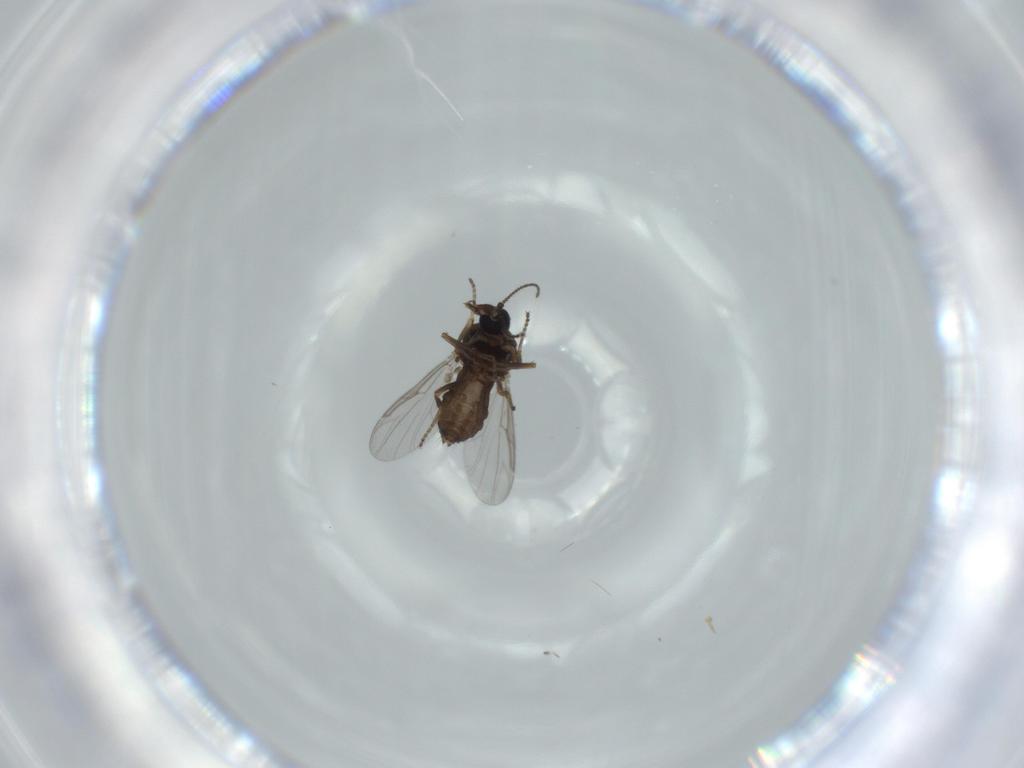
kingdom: Animalia
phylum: Arthropoda
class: Insecta
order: Diptera
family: Ceratopogonidae
